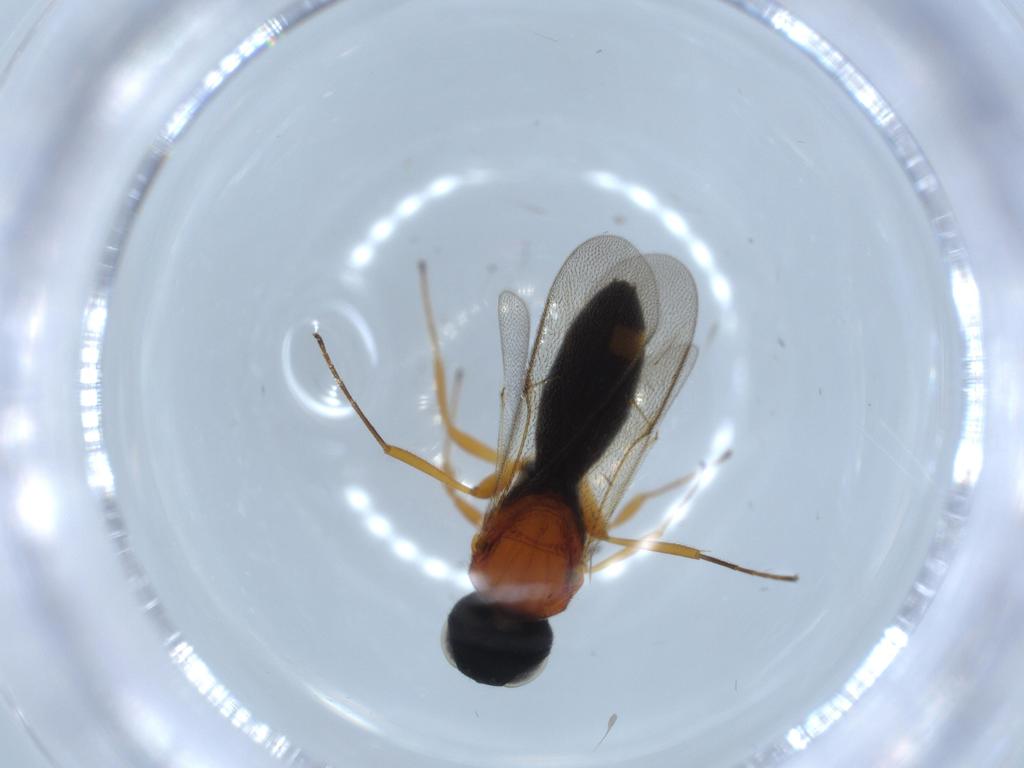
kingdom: Animalia
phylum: Arthropoda
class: Insecta
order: Hymenoptera
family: Scelionidae
